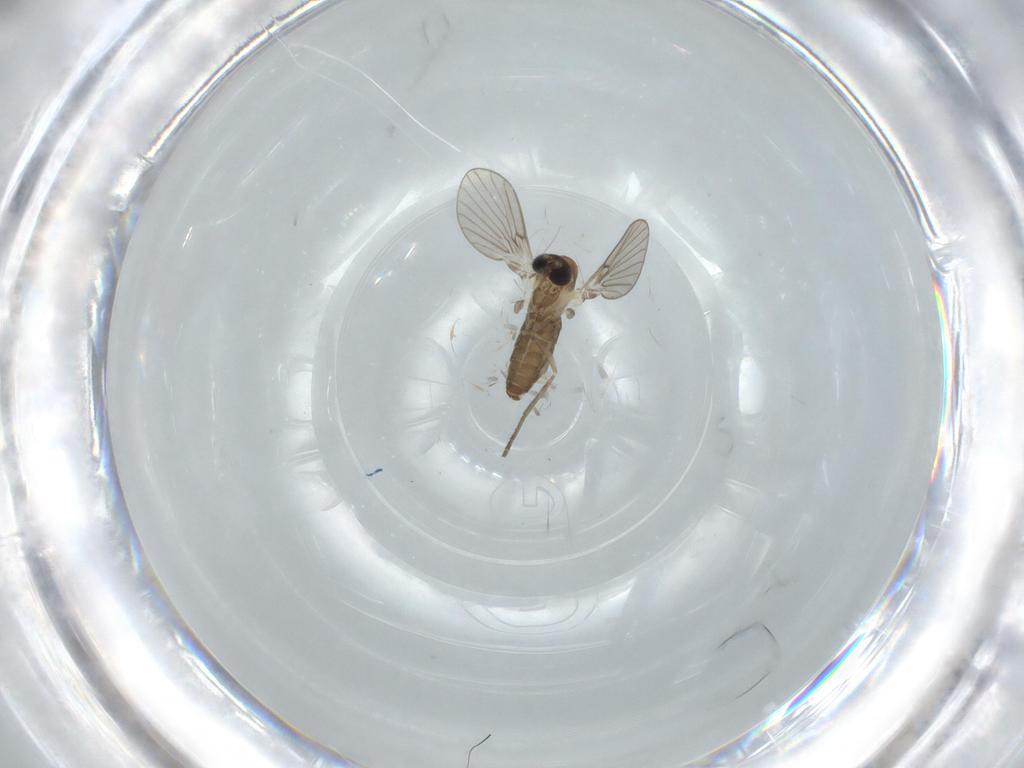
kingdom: Animalia
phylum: Arthropoda
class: Insecta
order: Diptera
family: Psychodidae
